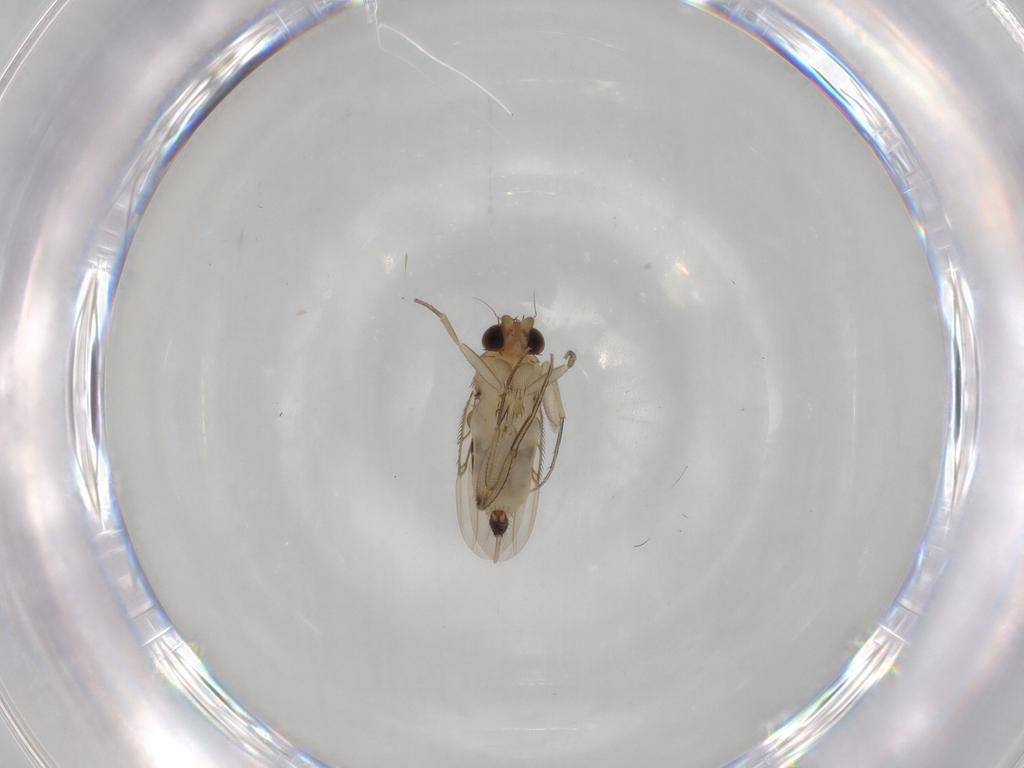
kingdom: Animalia
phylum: Arthropoda
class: Insecta
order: Diptera
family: Phoridae
